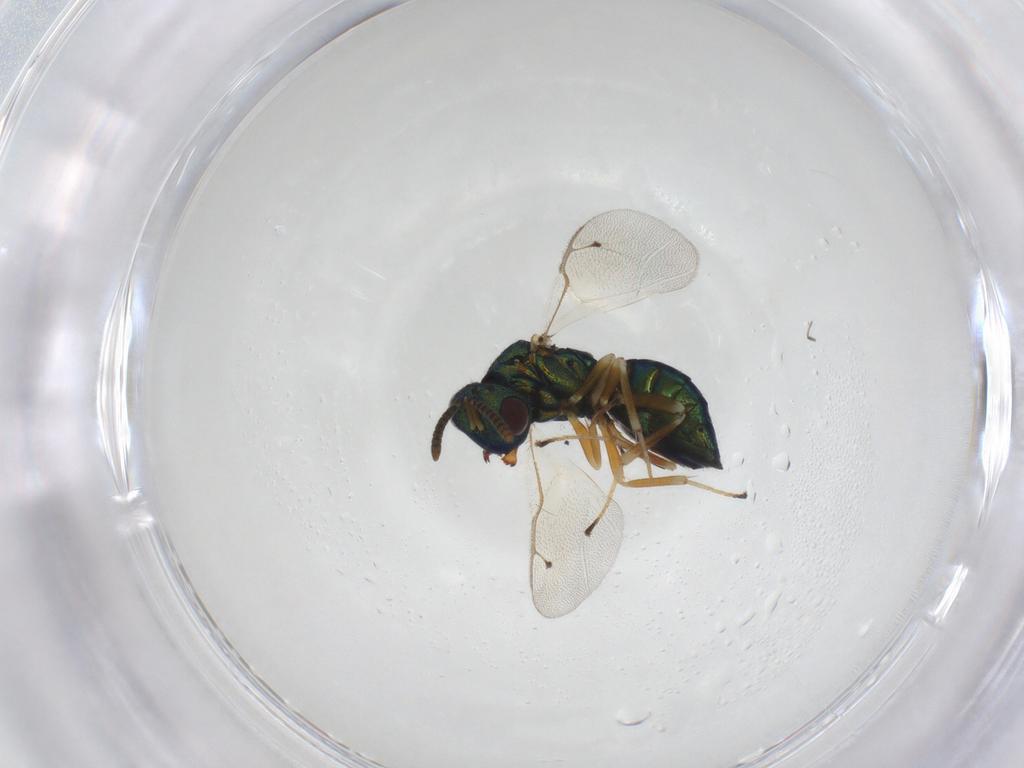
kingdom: Animalia
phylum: Arthropoda
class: Insecta
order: Hymenoptera
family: Pteromalidae
